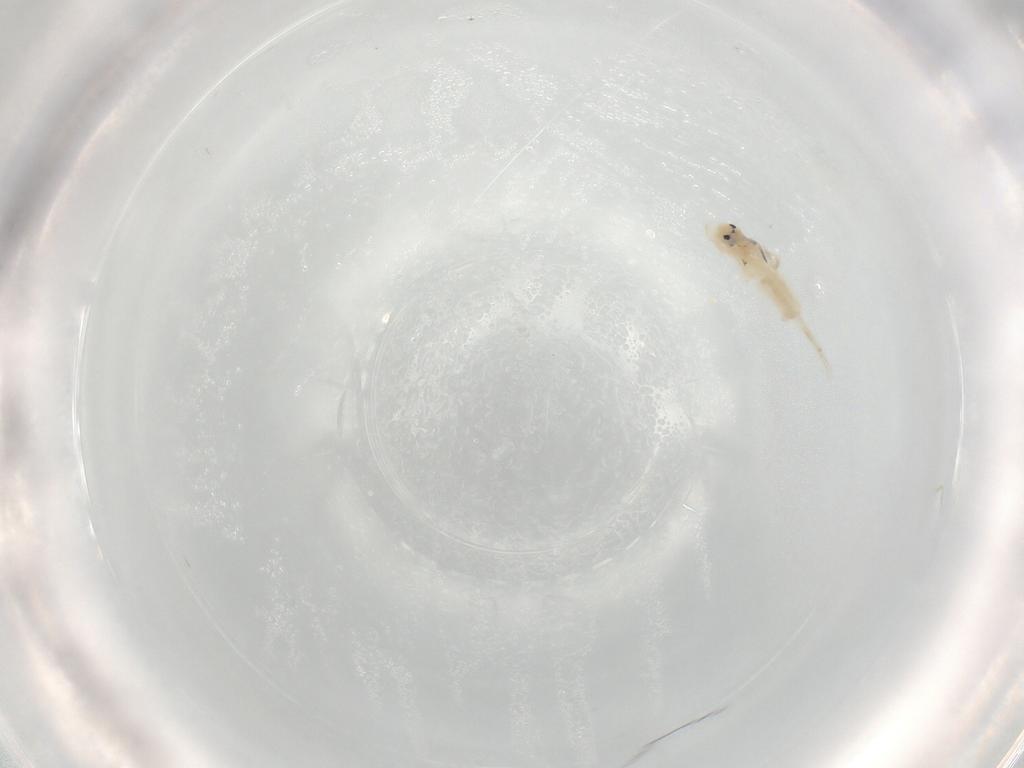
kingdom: Animalia
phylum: Arthropoda
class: Collembola
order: Entomobryomorpha
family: Entomobryidae
